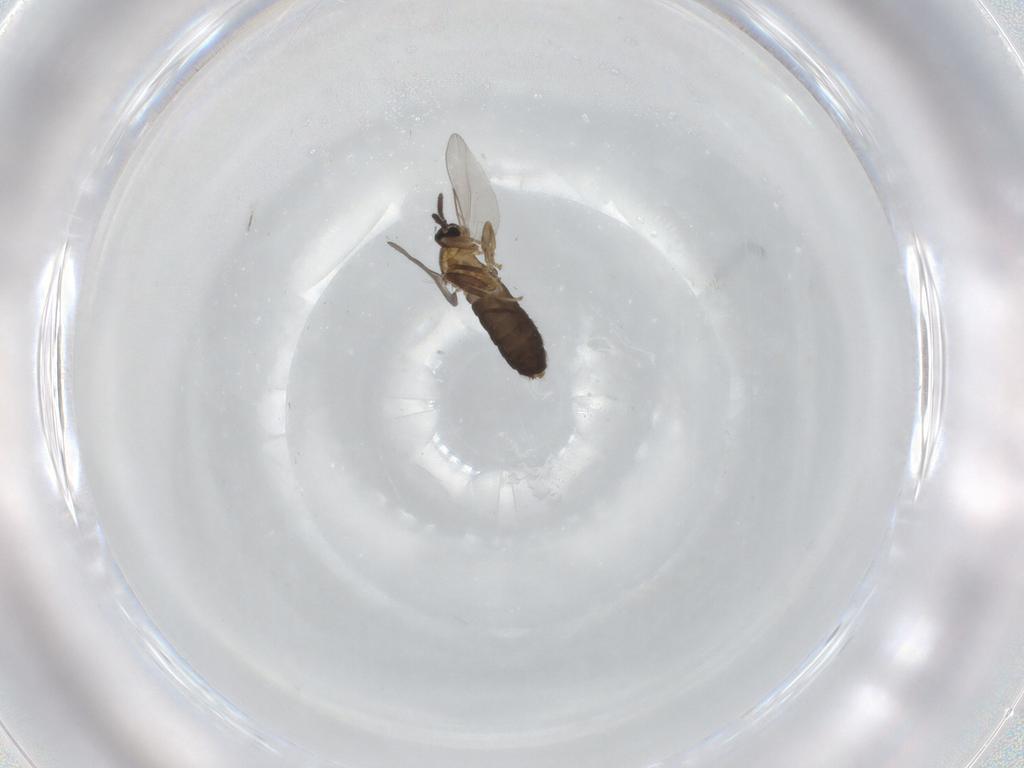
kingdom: Animalia
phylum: Arthropoda
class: Insecta
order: Diptera
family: Scatopsidae
